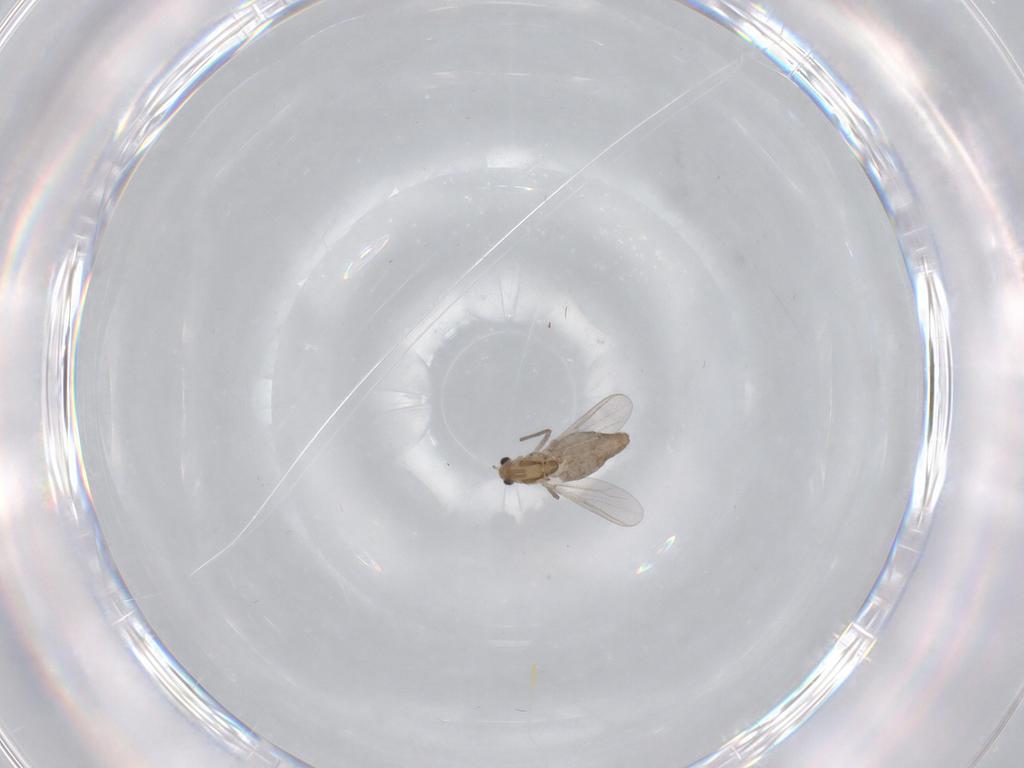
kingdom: Animalia
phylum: Arthropoda
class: Insecta
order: Diptera
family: Chironomidae
